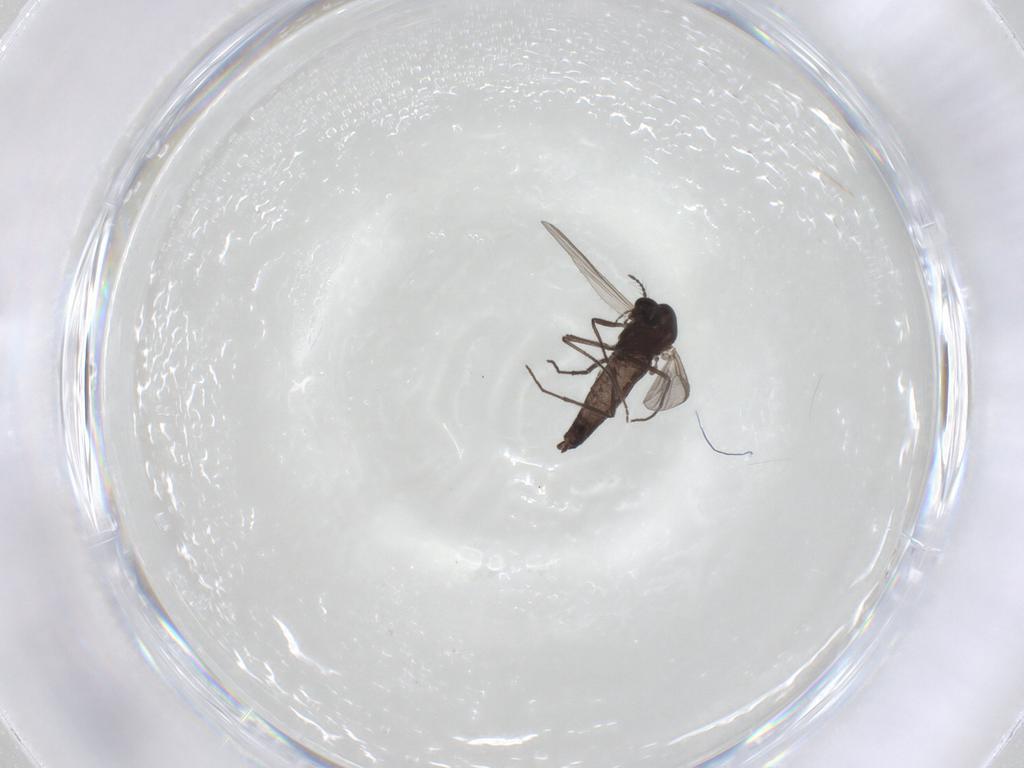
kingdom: Animalia
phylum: Arthropoda
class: Insecta
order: Diptera
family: Chironomidae
